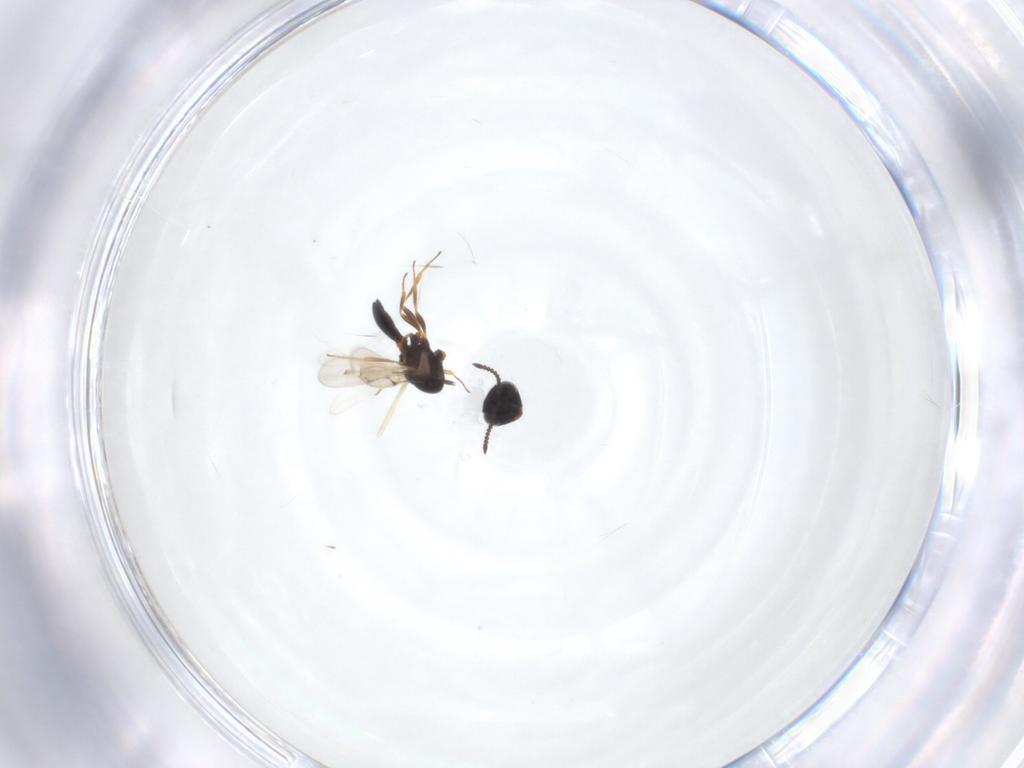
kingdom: Animalia
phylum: Arthropoda
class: Arachnida
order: Araneae
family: Pholcidae
